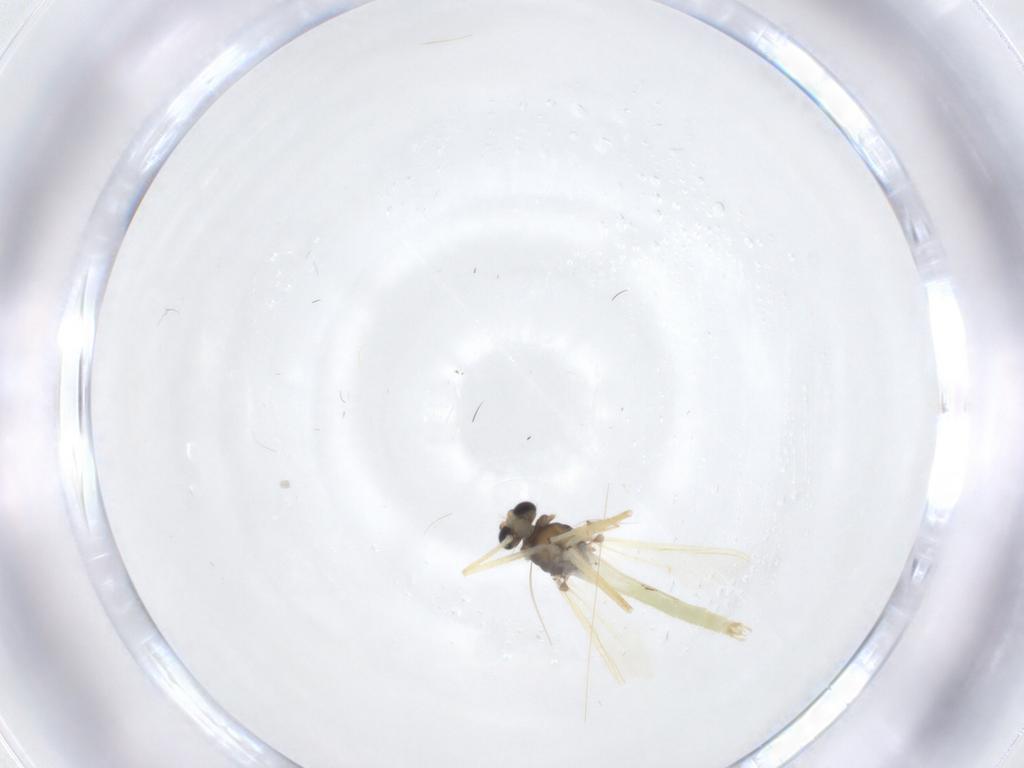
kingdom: Animalia
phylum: Arthropoda
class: Insecta
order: Diptera
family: Chironomidae
